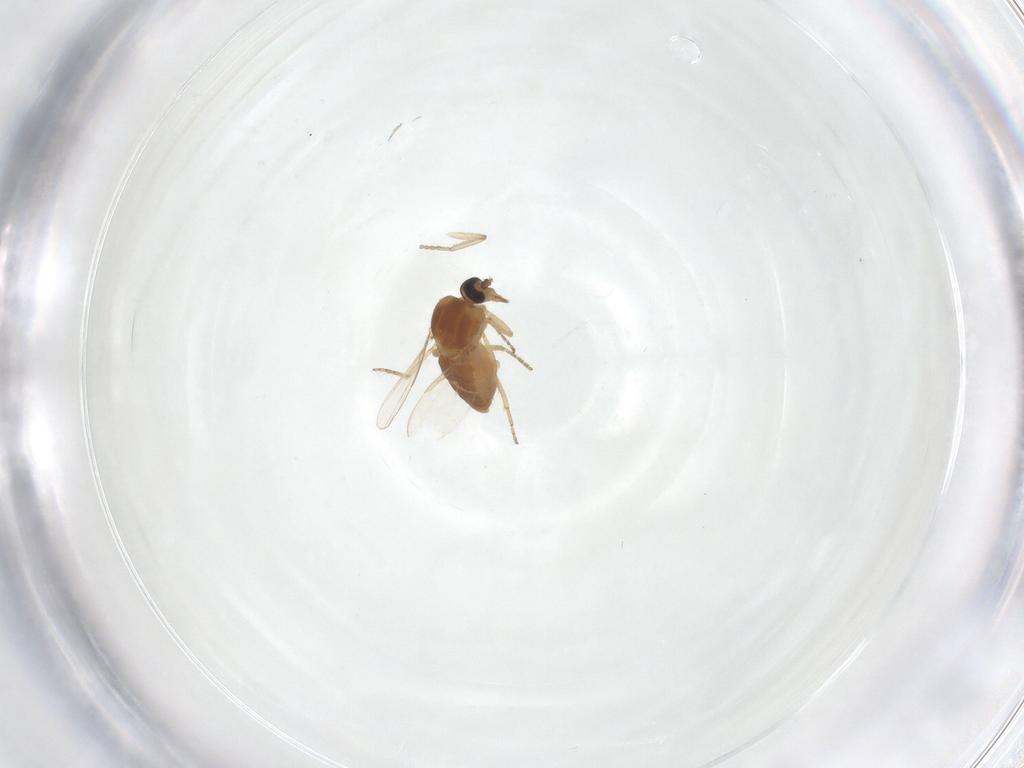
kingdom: Animalia
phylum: Arthropoda
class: Insecta
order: Diptera
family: Ceratopogonidae
